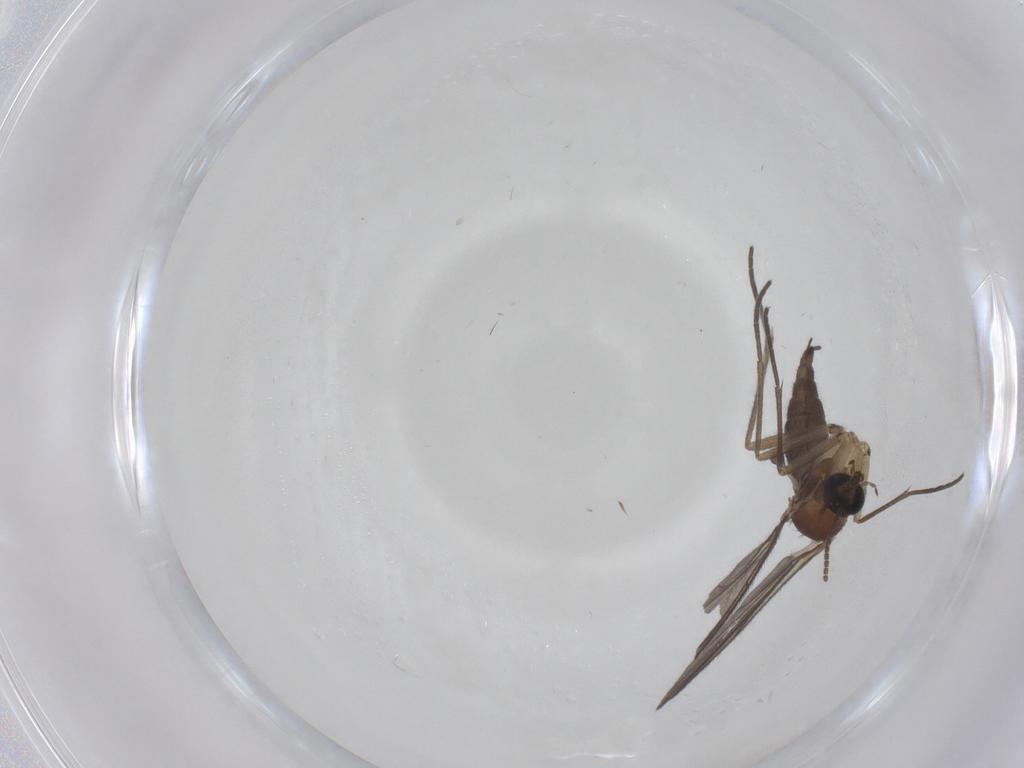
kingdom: Animalia
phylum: Arthropoda
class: Insecta
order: Diptera
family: Sciaridae
